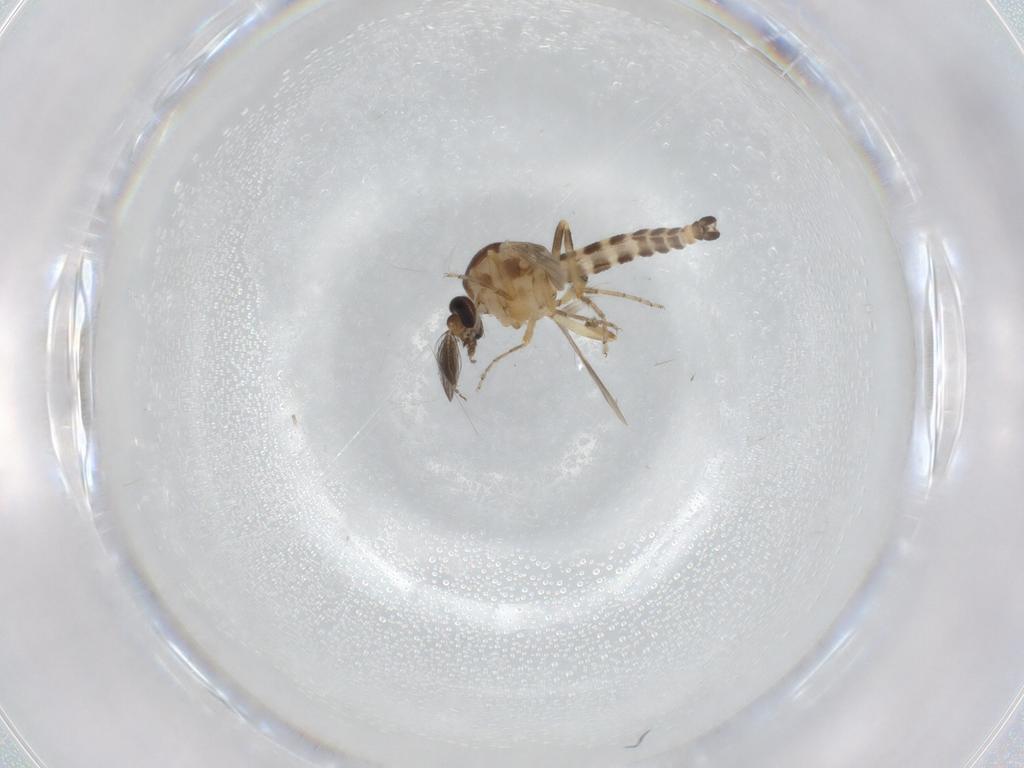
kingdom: Animalia
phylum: Arthropoda
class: Insecta
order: Diptera
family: Ceratopogonidae
